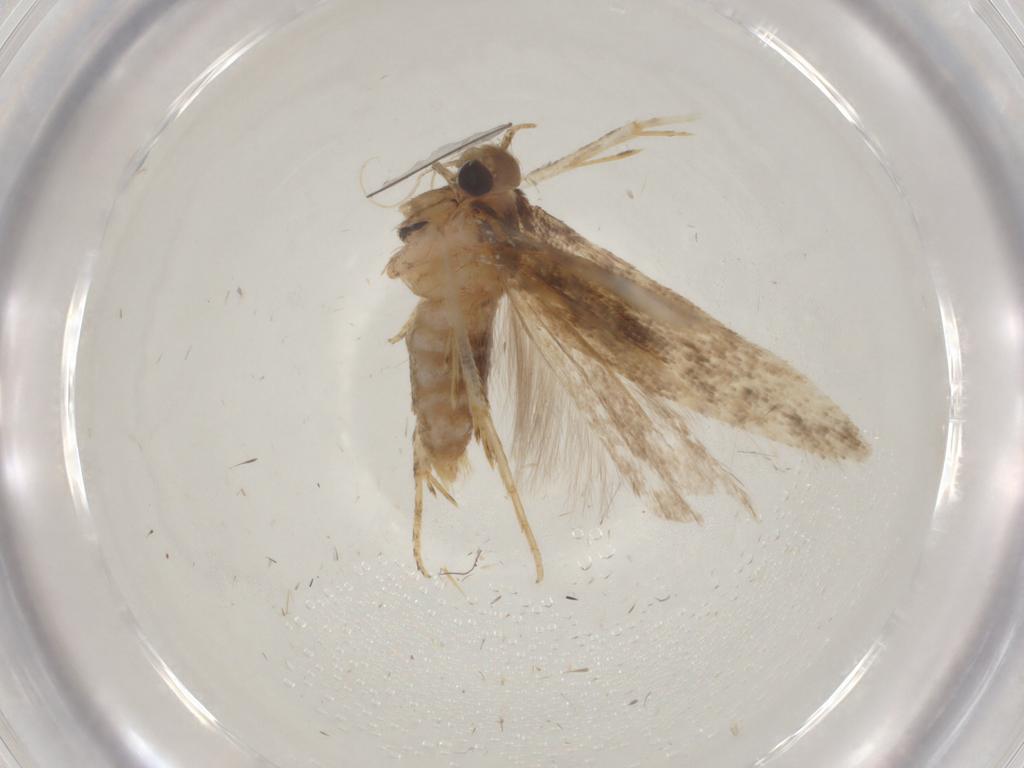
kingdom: Animalia
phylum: Arthropoda
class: Insecta
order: Lepidoptera
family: Gelechiidae
